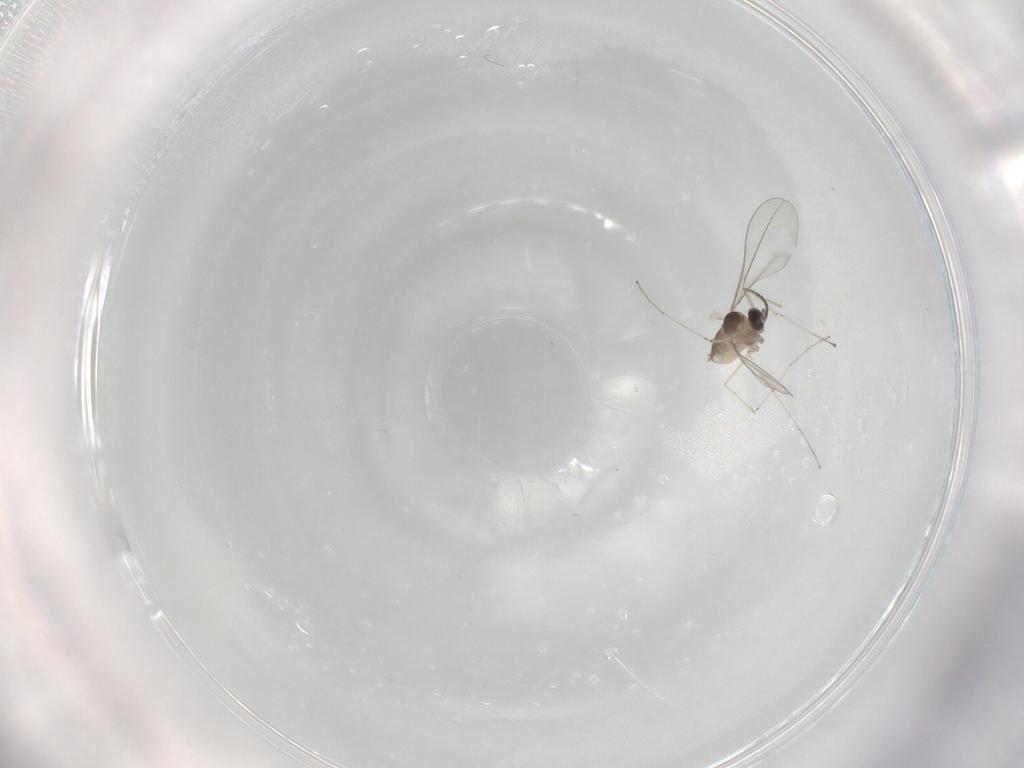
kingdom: Animalia
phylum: Arthropoda
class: Insecta
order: Diptera
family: Cecidomyiidae
